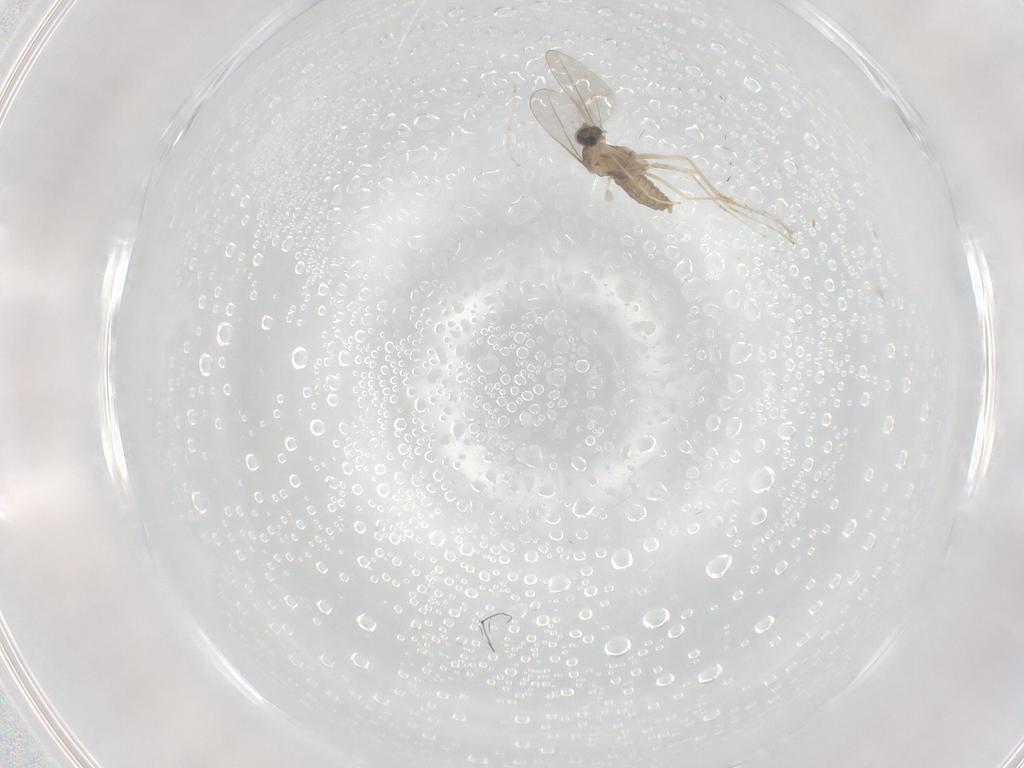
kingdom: Animalia
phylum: Arthropoda
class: Insecta
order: Diptera
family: Cecidomyiidae
